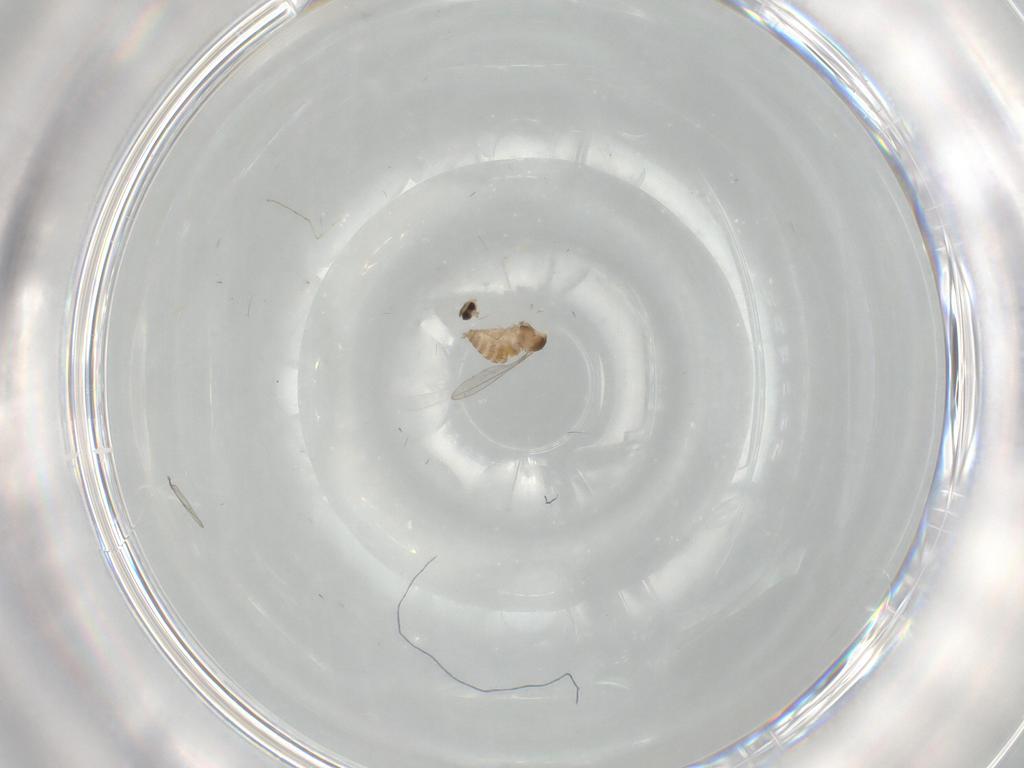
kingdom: Animalia
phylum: Arthropoda
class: Insecta
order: Diptera
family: Cecidomyiidae
